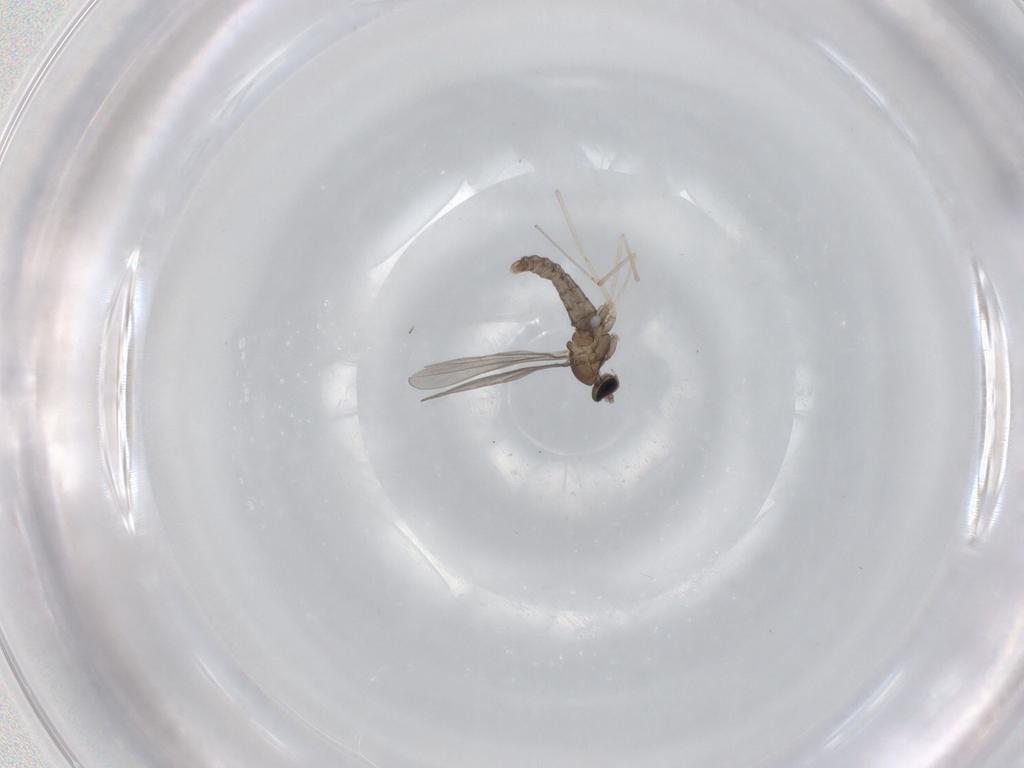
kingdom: Animalia
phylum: Arthropoda
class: Insecta
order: Diptera
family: Cecidomyiidae
